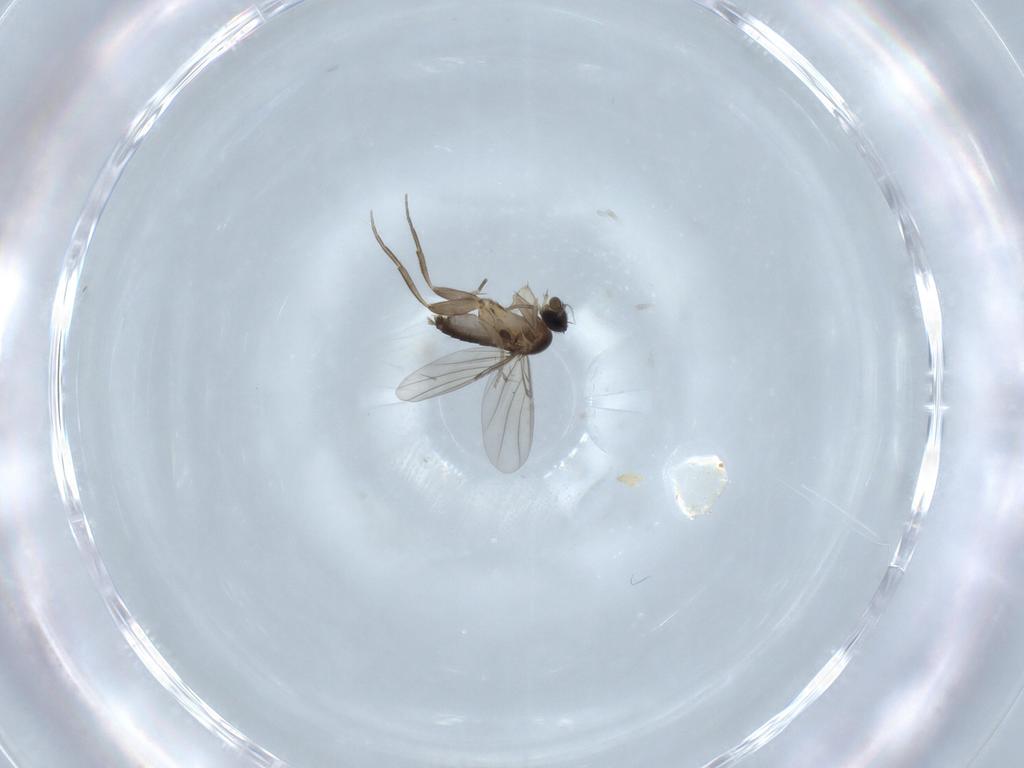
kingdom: Animalia
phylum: Arthropoda
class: Insecta
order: Diptera
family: Phoridae
